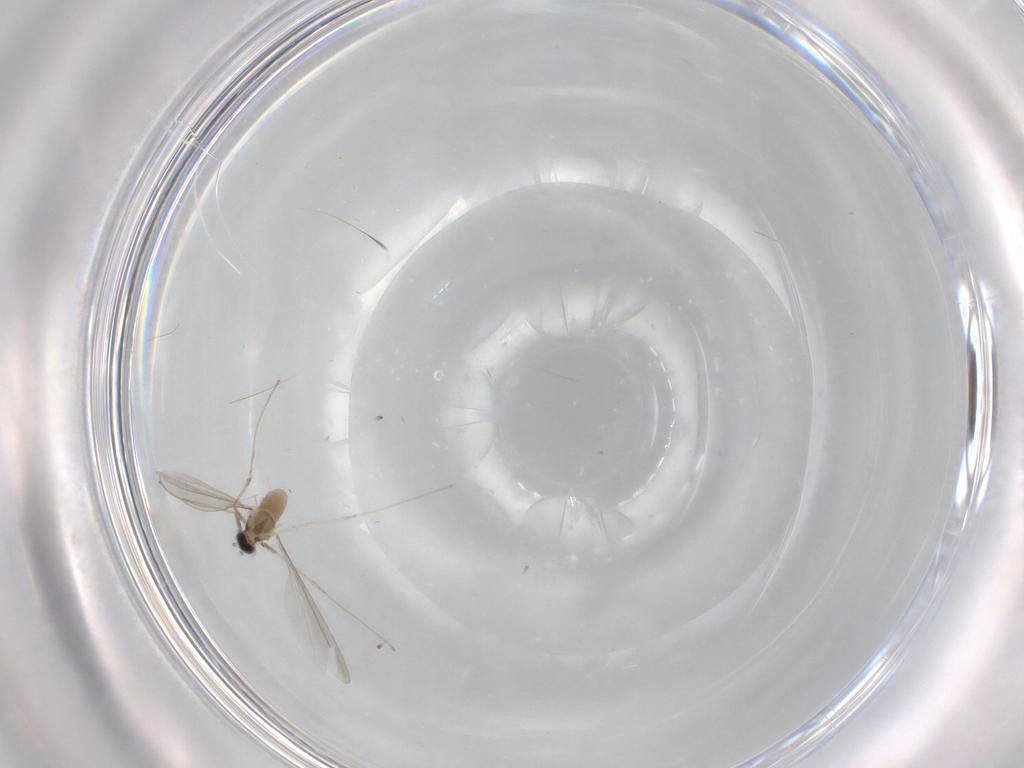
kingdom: Animalia
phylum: Arthropoda
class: Insecta
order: Diptera
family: Cecidomyiidae
